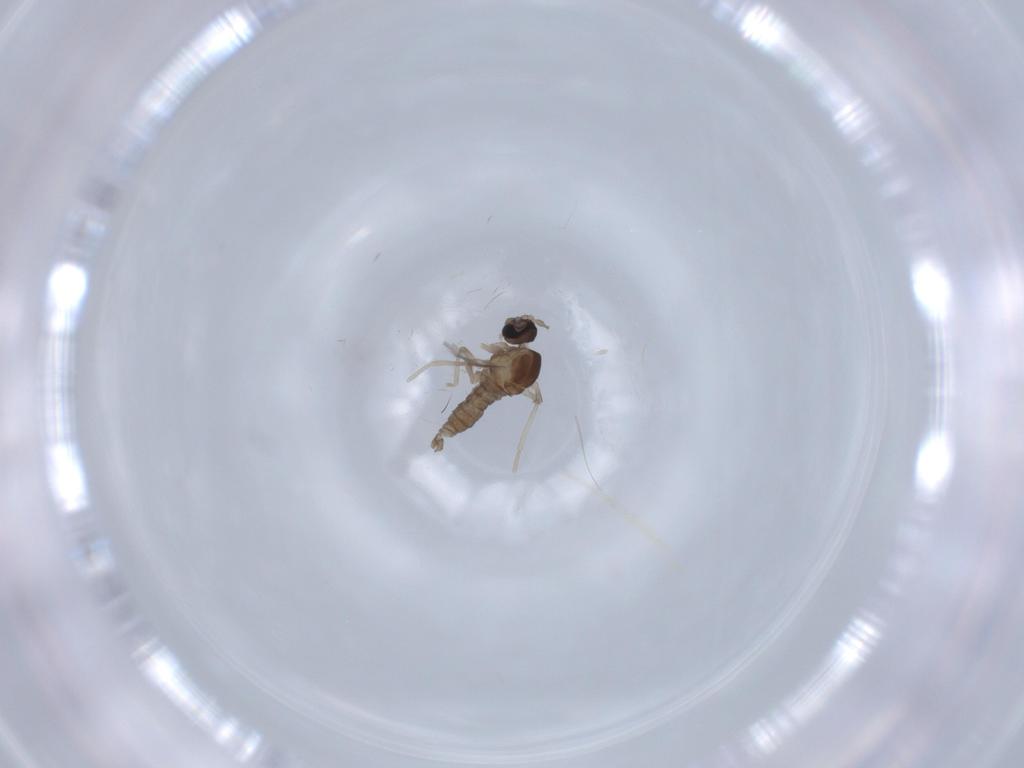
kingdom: Animalia
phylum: Arthropoda
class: Insecta
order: Diptera
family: Cecidomyiidae
